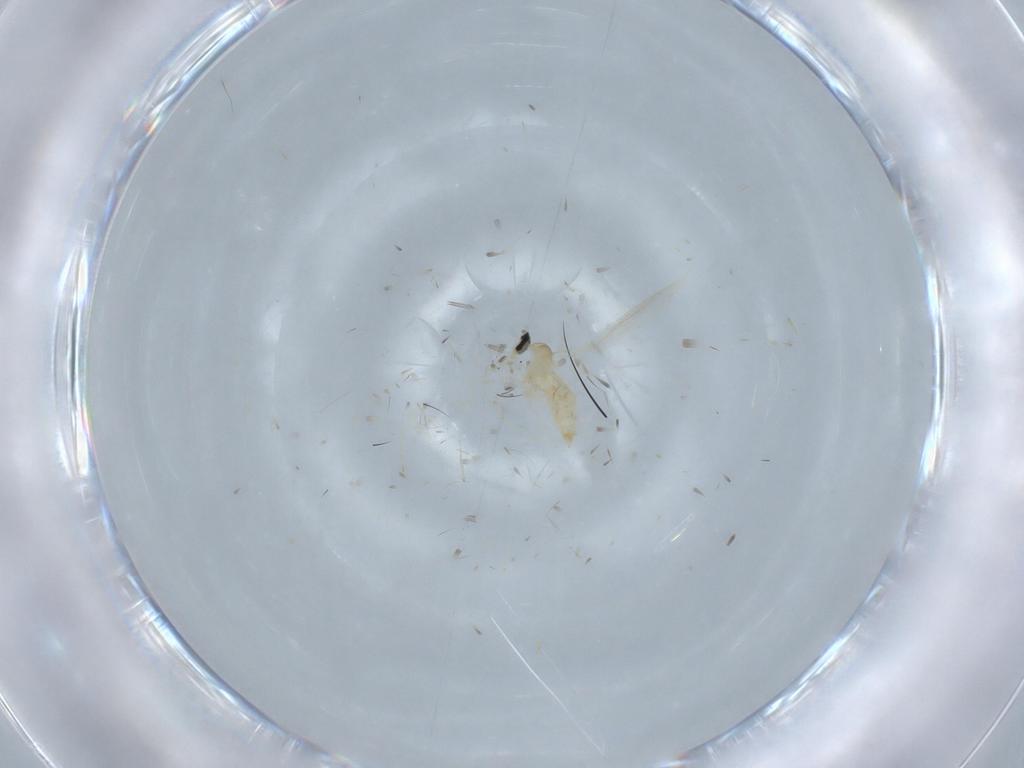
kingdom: Animalia
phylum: Arthropoda
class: Insecta
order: Diptera
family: Cecidomyiidae
